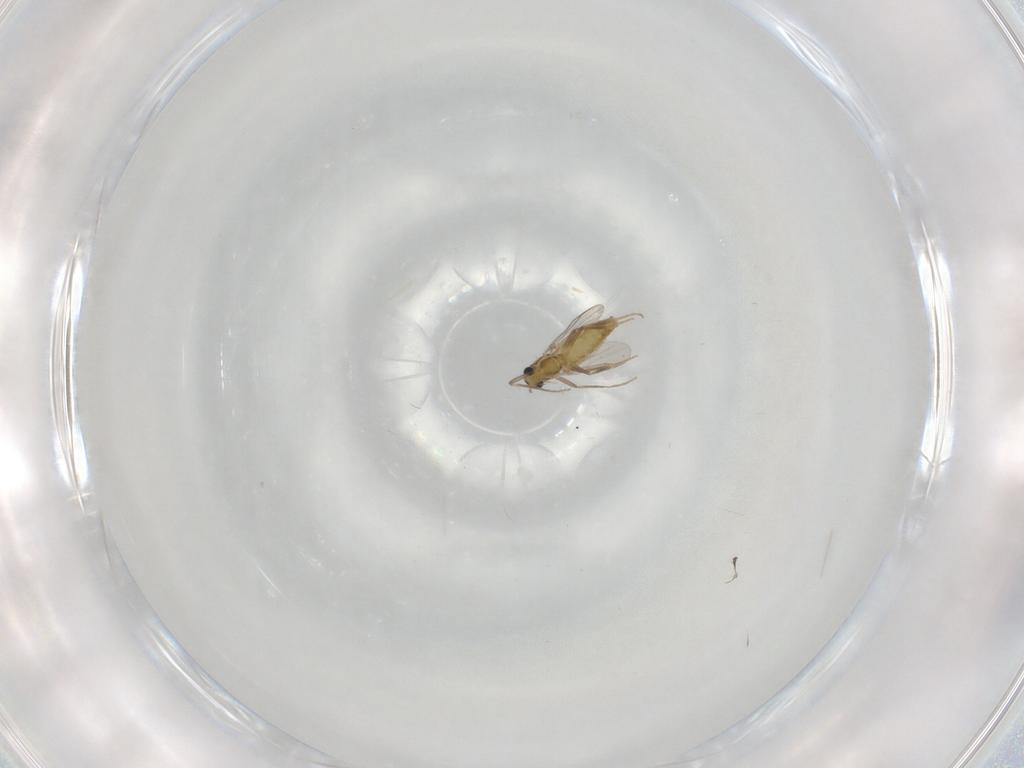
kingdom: Animalia
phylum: Arthropoda
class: Insecta
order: Diptera
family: Chironomidae
